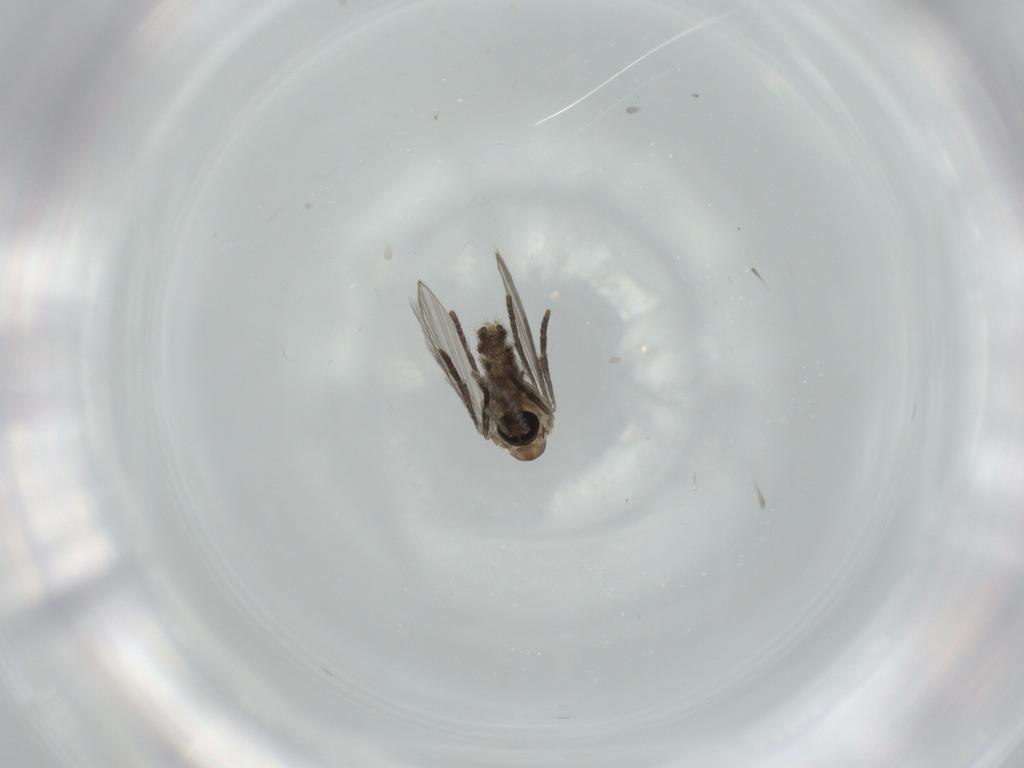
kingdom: Animalia
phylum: Arthropoda
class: Insecta
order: Diptera
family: Psychodidae
